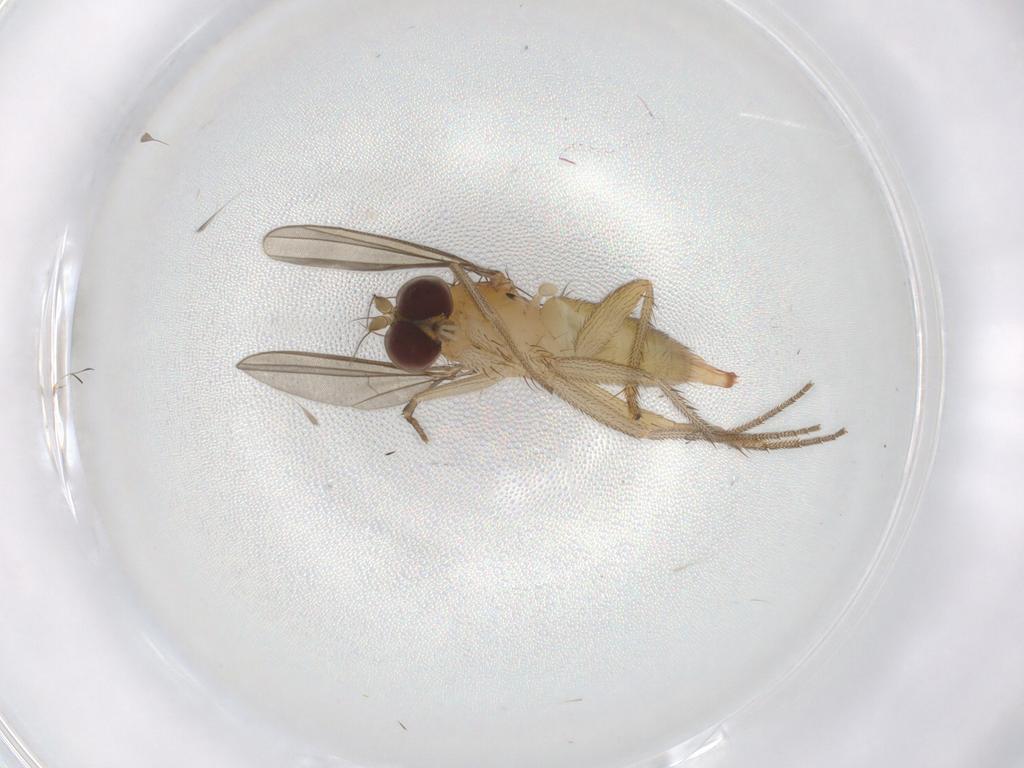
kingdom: Animalia
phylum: Arthropoda
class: Insecta
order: Diptera
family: Dolichopodidae
